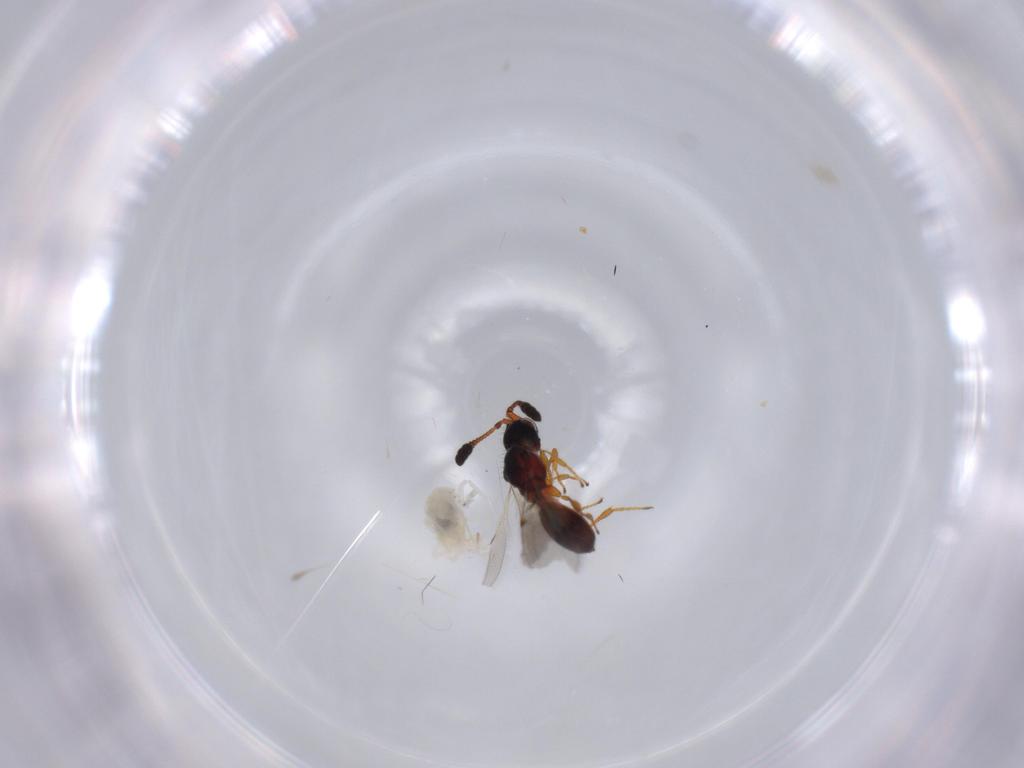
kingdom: Animalia
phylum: Arthropoda
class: Insecta
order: Hymenoptera
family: Diapriidae
